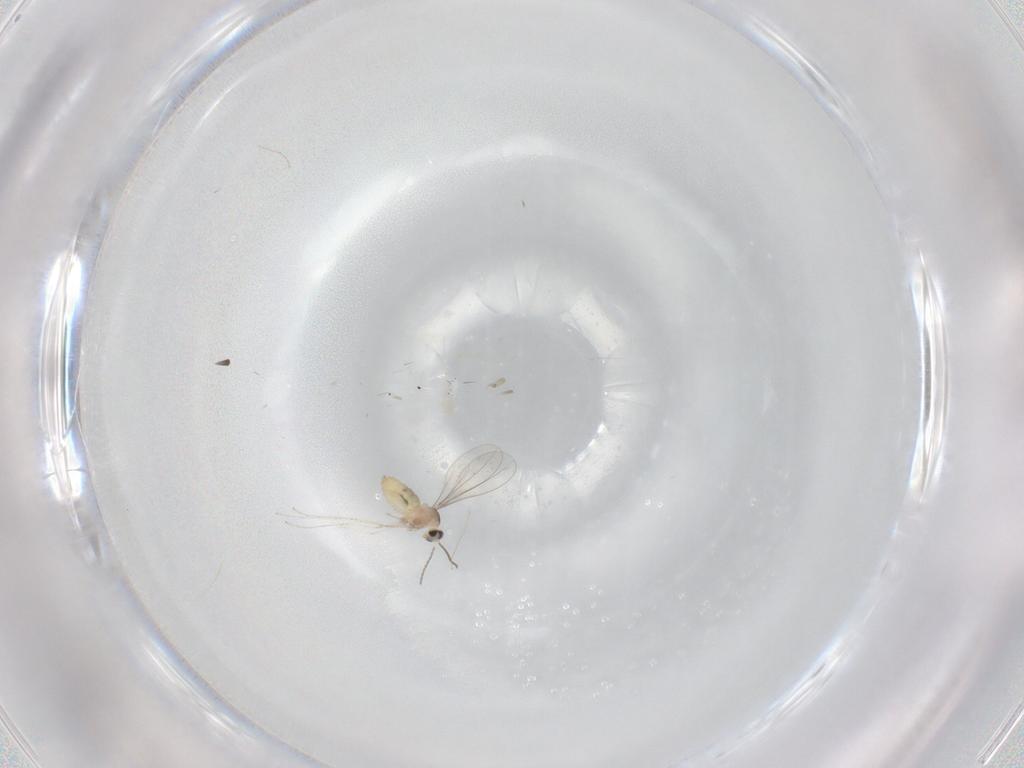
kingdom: Animalia
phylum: Arthropoda
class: Insecta
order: Diptera
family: Cecidomyiidae
